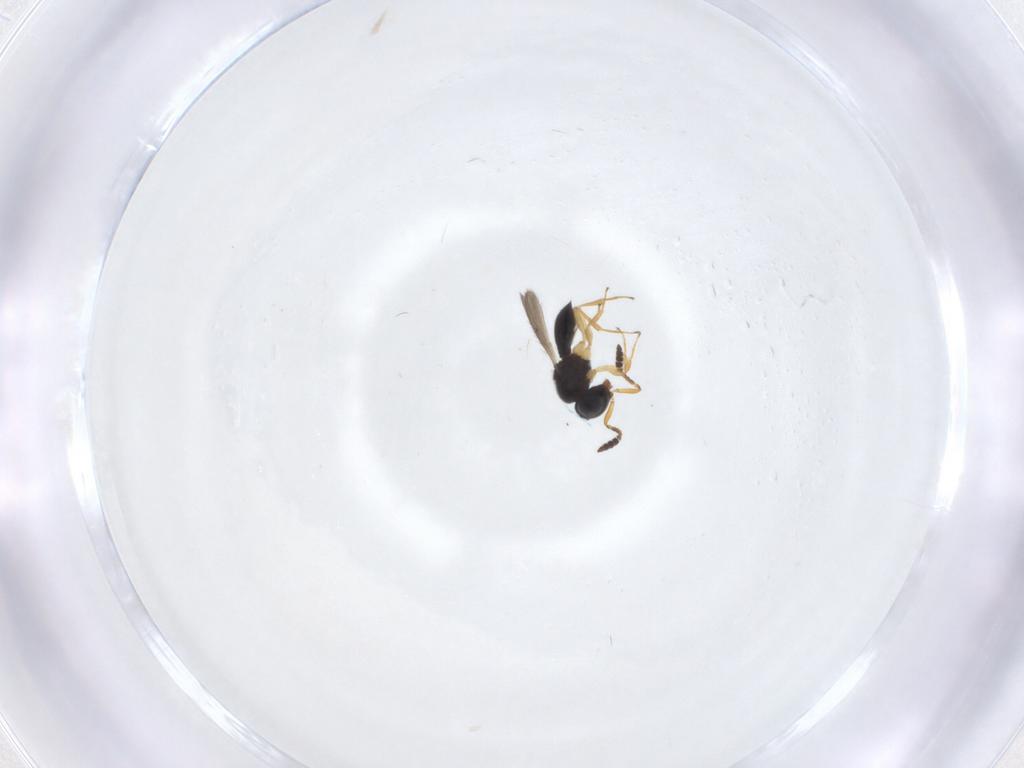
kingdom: Animalia
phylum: Arthropoda
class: Insecta
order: Hymenoptera
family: Scelionidae
